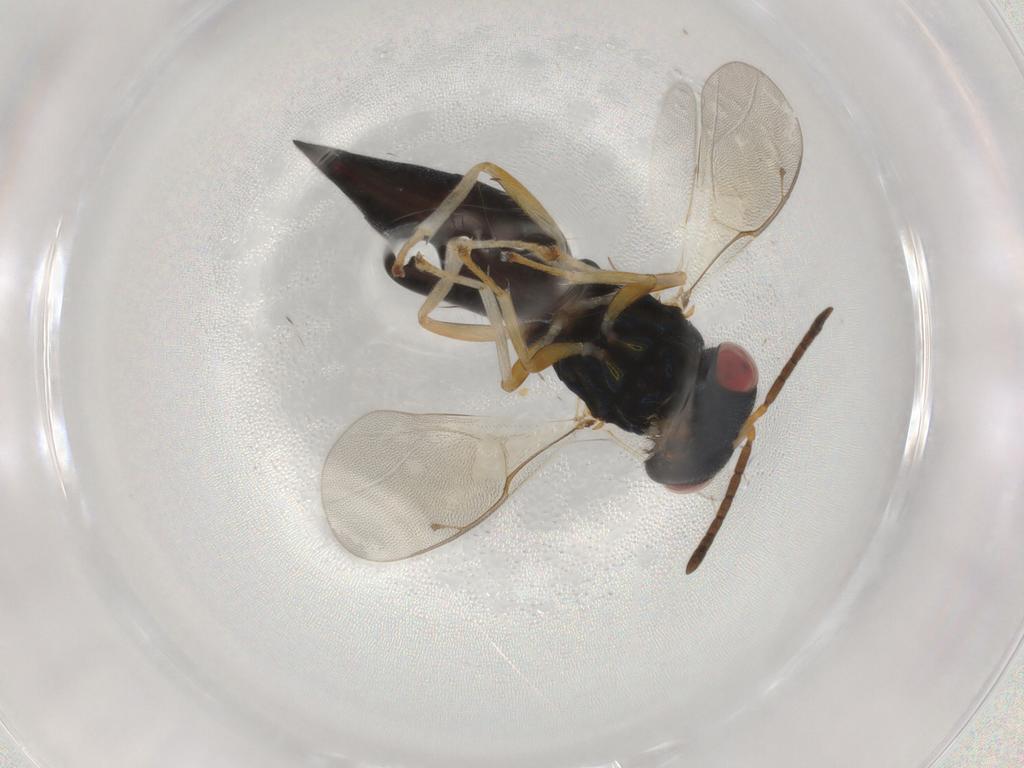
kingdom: Animalia
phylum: Arthropoda
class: Insecta
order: Hymenoptera
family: Pteromalidae
